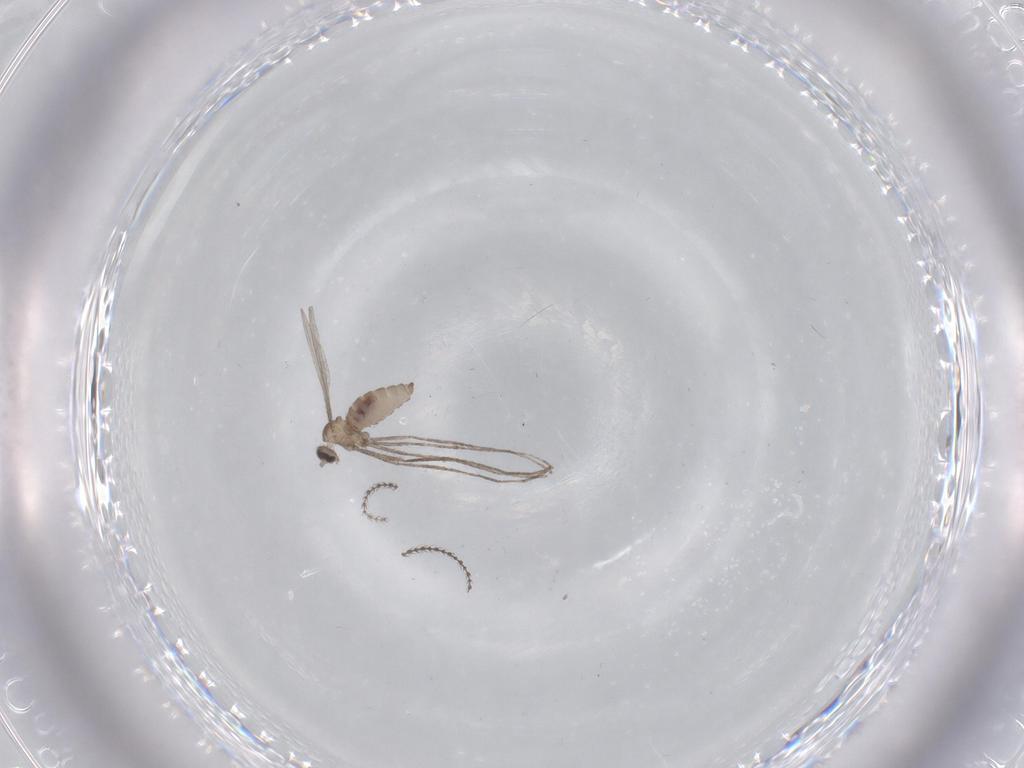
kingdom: Animalia
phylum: Arthropoda
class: Insecta
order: Diptera
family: Cecidomyiidae
